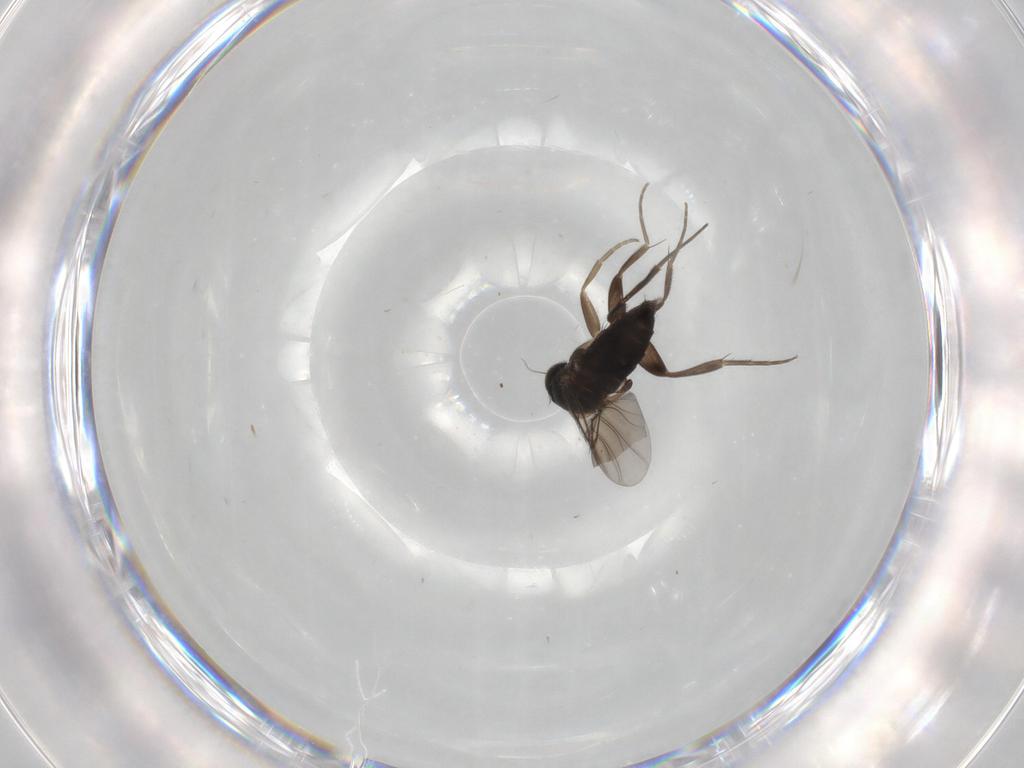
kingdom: Animalia
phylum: Arthropoda
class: Insecta
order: Diptera
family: Phoridae
